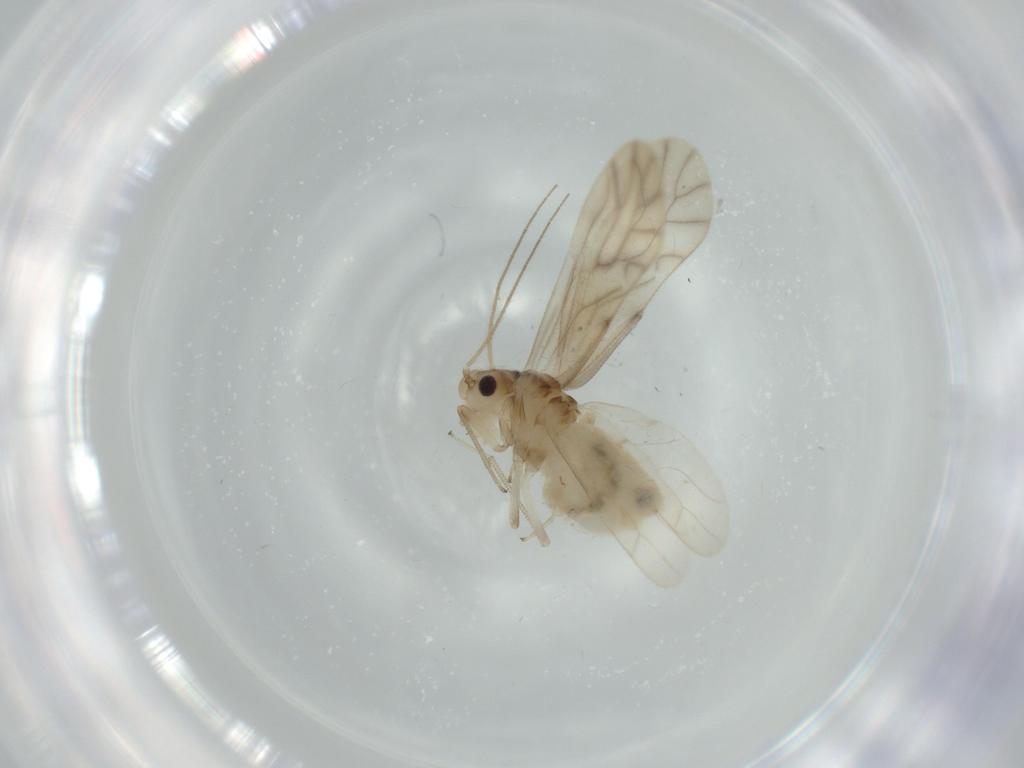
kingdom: Animalia
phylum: Arthropoda
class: Insecta
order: Psocodea
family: Caeciliusidae
